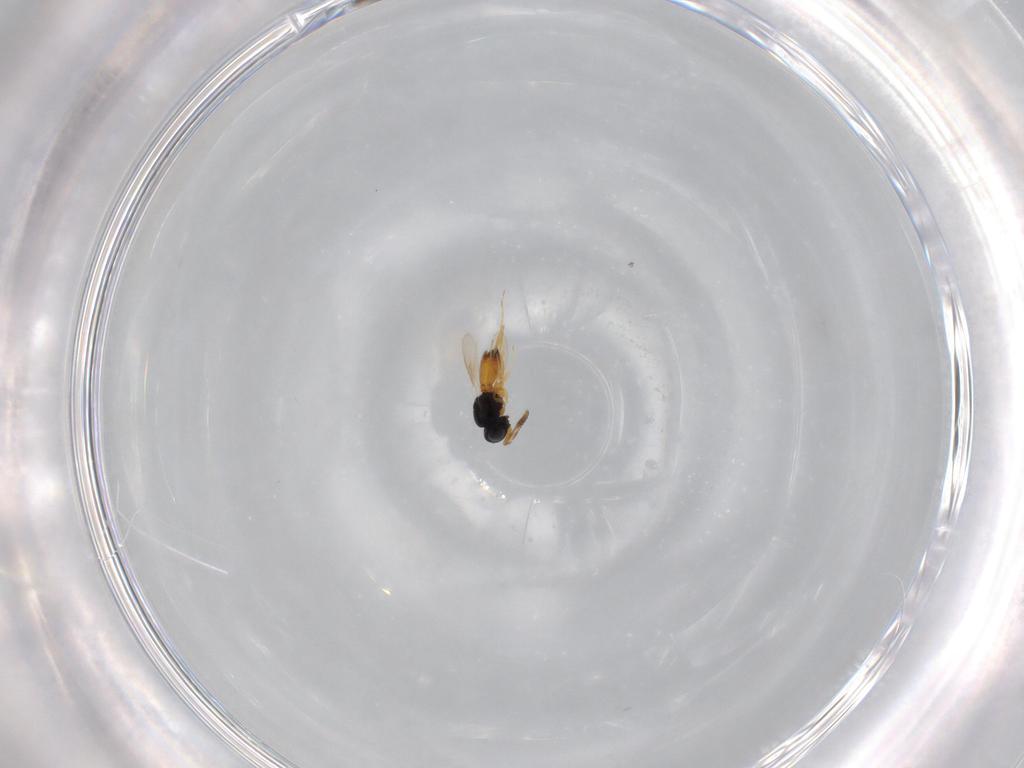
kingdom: Animalia
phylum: Arthropoda
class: Insecta
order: Hymenoptera
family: Scelionidae
